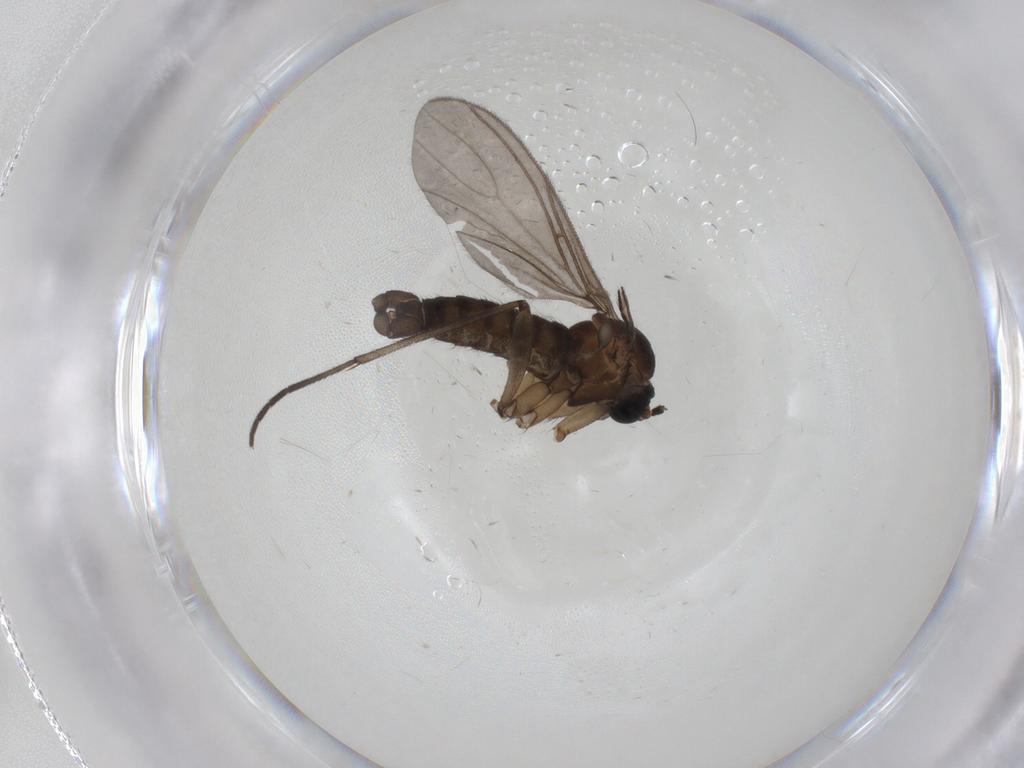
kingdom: Animalia
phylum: Arthropoda
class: Insecta
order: Diptera
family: Sciaridae
